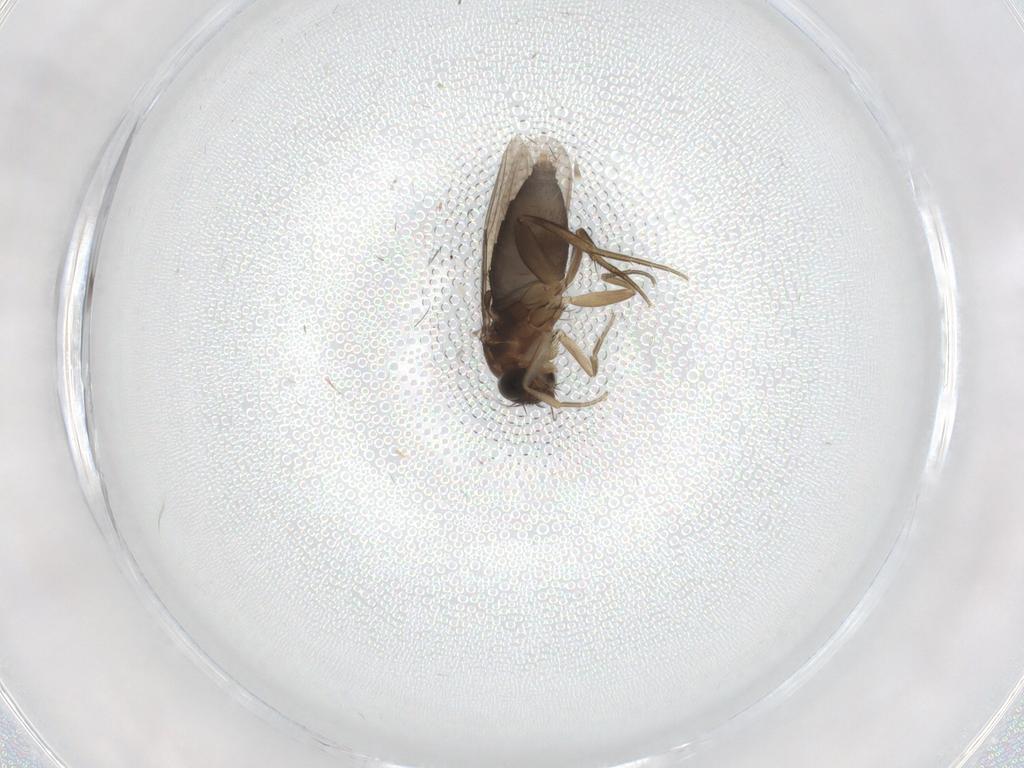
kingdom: Animalia
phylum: Arthropoda
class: Insecta
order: Diptera
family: Phoridae
